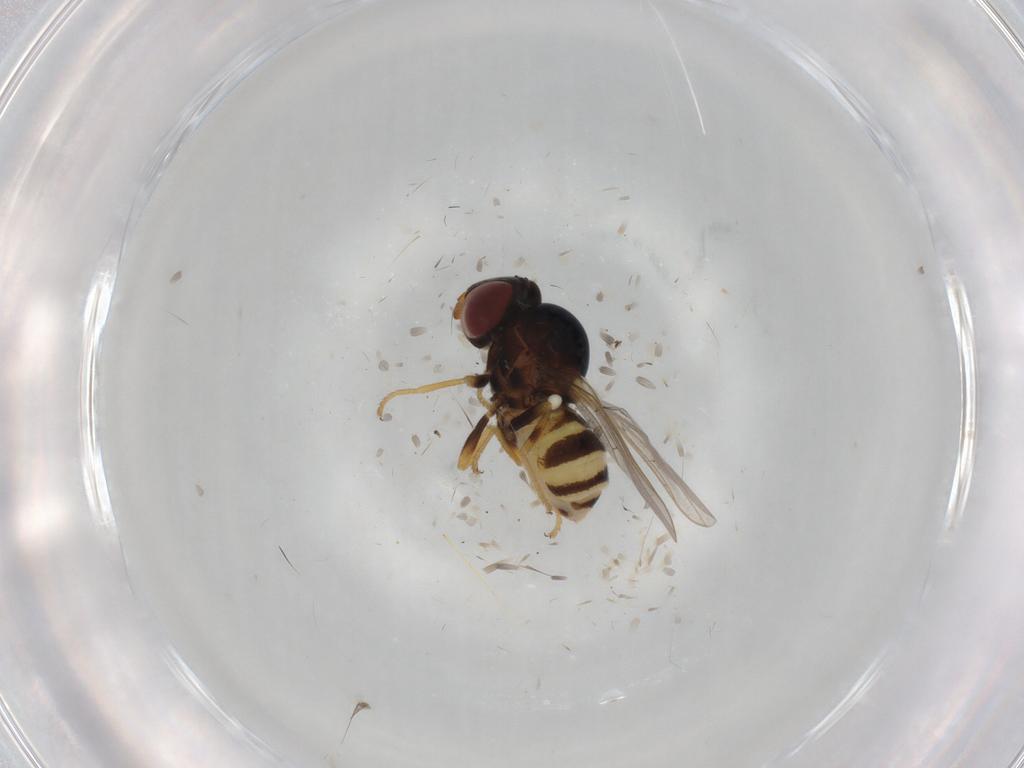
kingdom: Animalia
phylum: Arthropoda
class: Insecta
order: Diptera
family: Chloropidae
